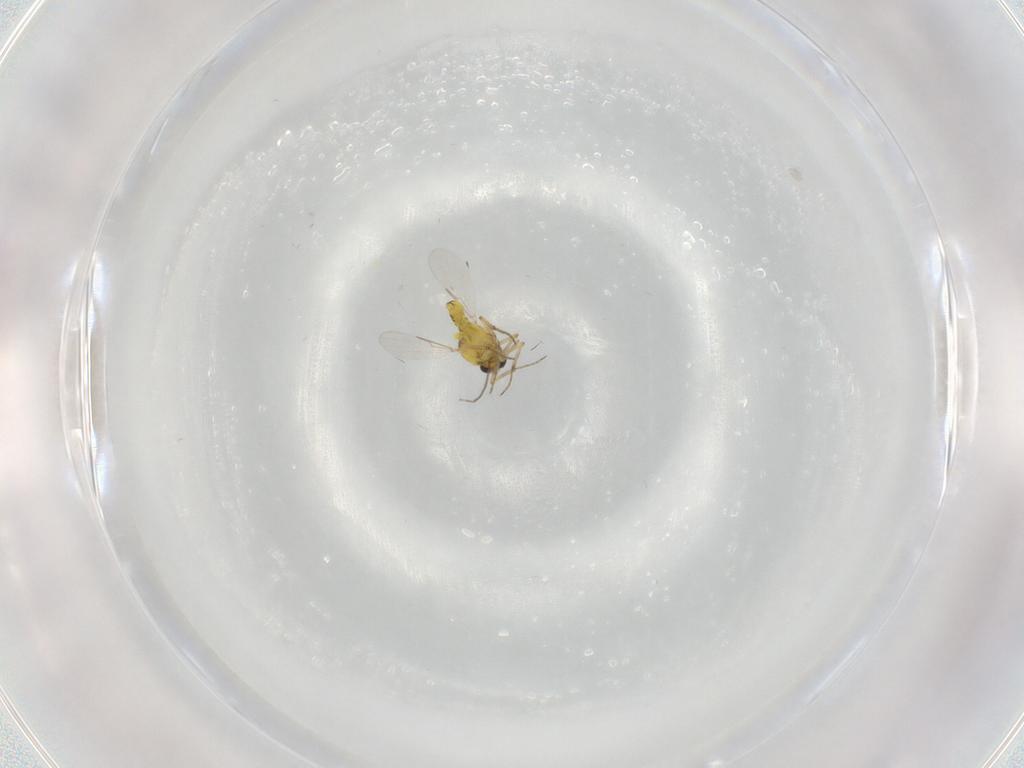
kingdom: Animalia
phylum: Arthropoda
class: Insecta
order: Diptera
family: Ceratopogonidae
